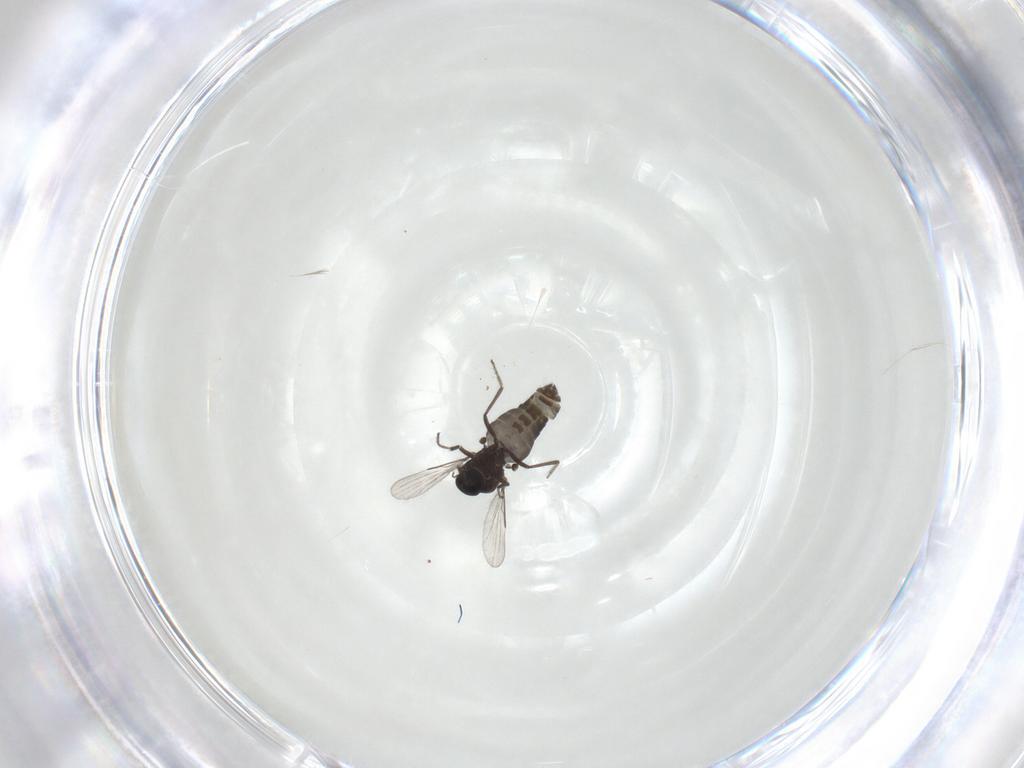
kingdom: Animalia
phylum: Arthropoda
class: Insecta
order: Diptera
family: Ceratopogonidae
